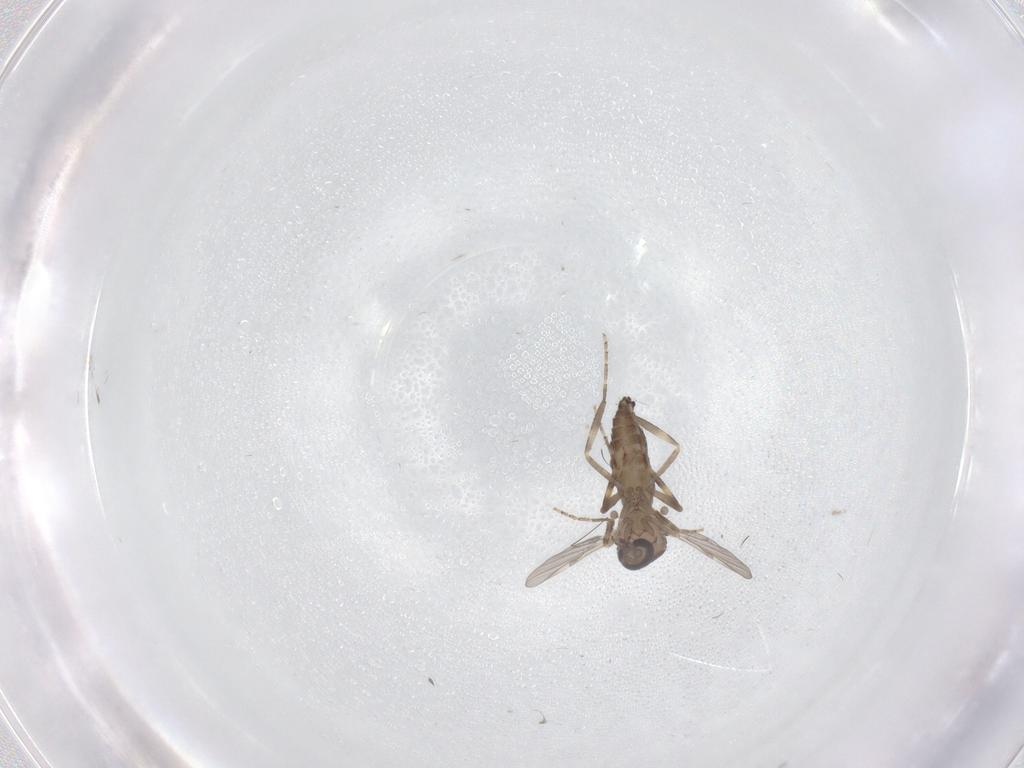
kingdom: Animalia
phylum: Arthropoda
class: Insecta
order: Diptera
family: Ceratopogonidae
